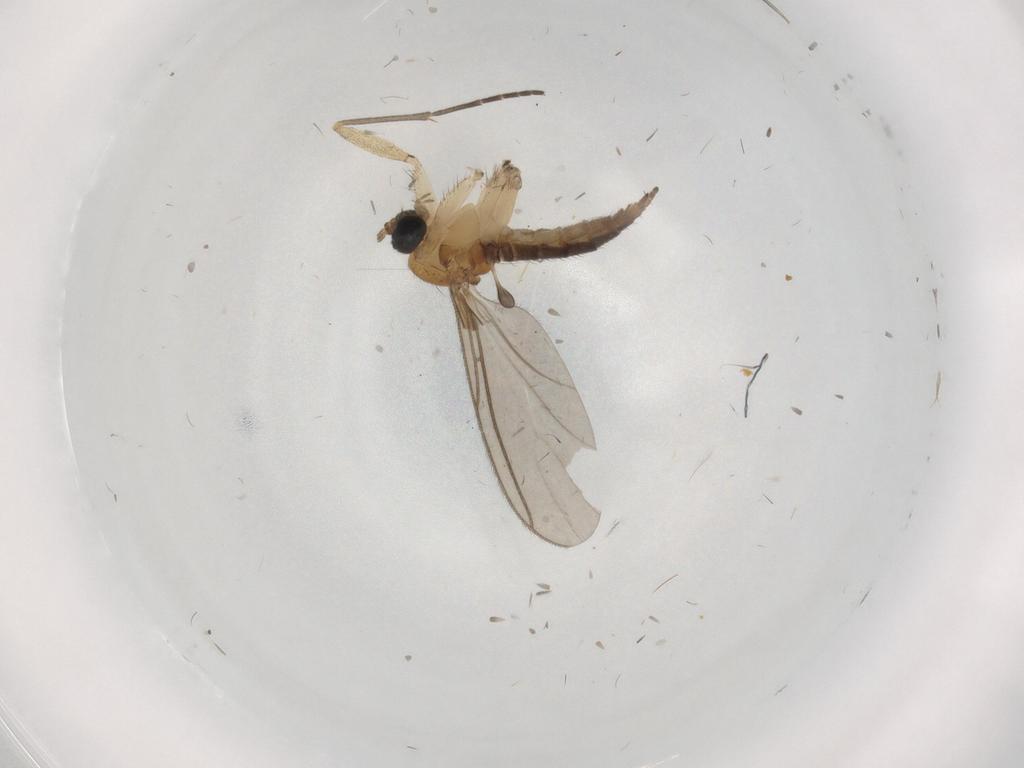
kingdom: Animalia
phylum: Arthropoda
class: Insecta
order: Diptera
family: Sciaridae
